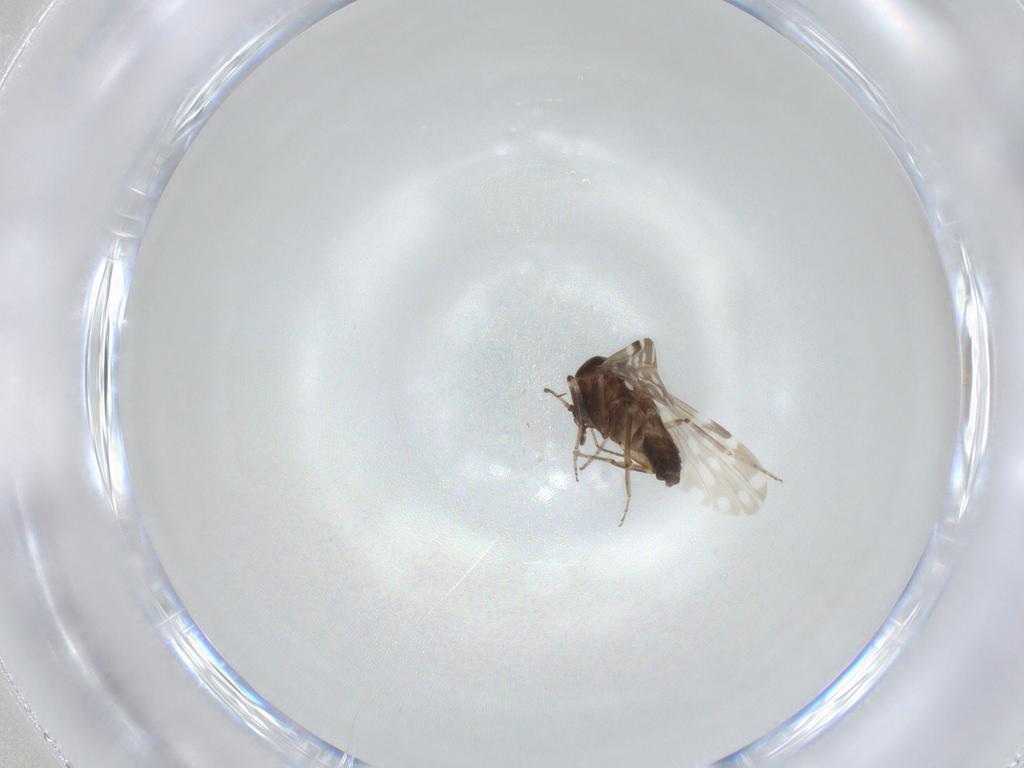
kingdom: Animalia
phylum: Arthropoda
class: Insecta
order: Diptera
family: Ceratopogonidae
